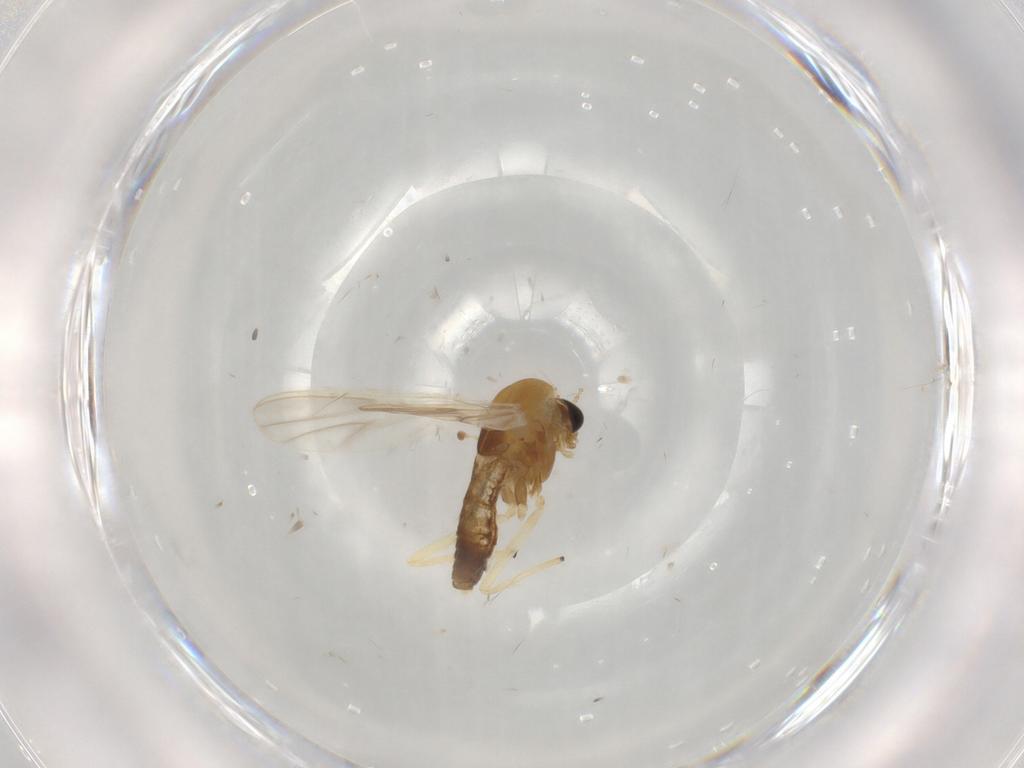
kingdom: Animalia
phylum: Arthropoda
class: Insecta
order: Diptera
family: Chironomidae
